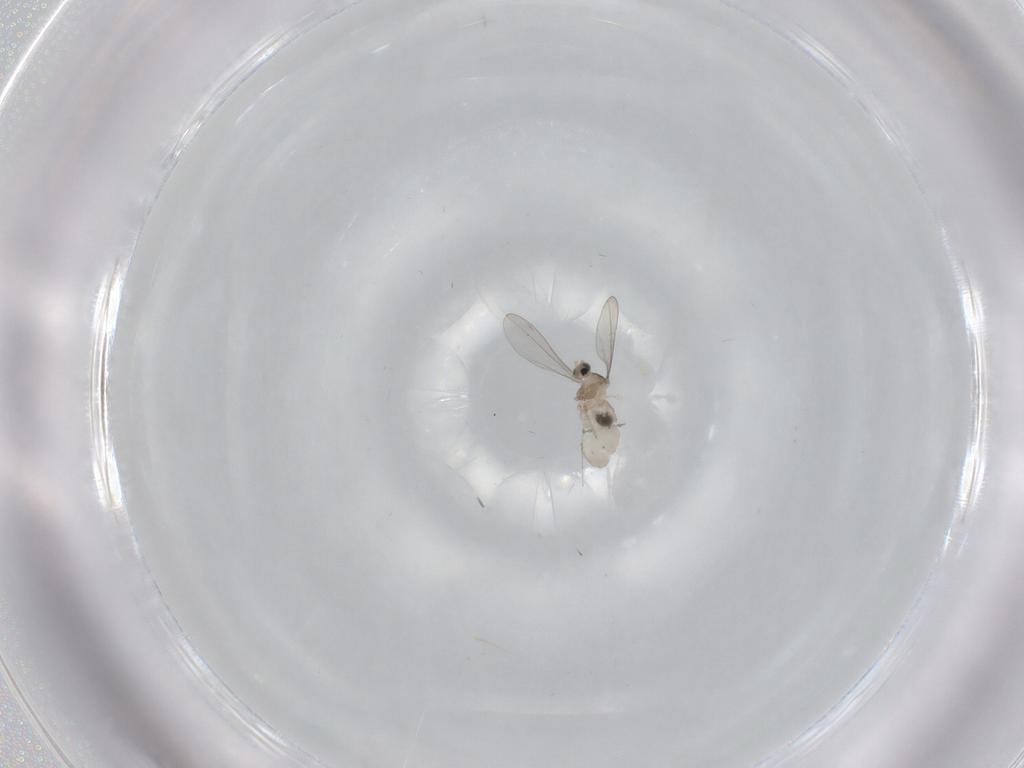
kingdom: Animalia
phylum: Arthropoda
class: Insecta
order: Diptera
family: Cecidomyiidae
